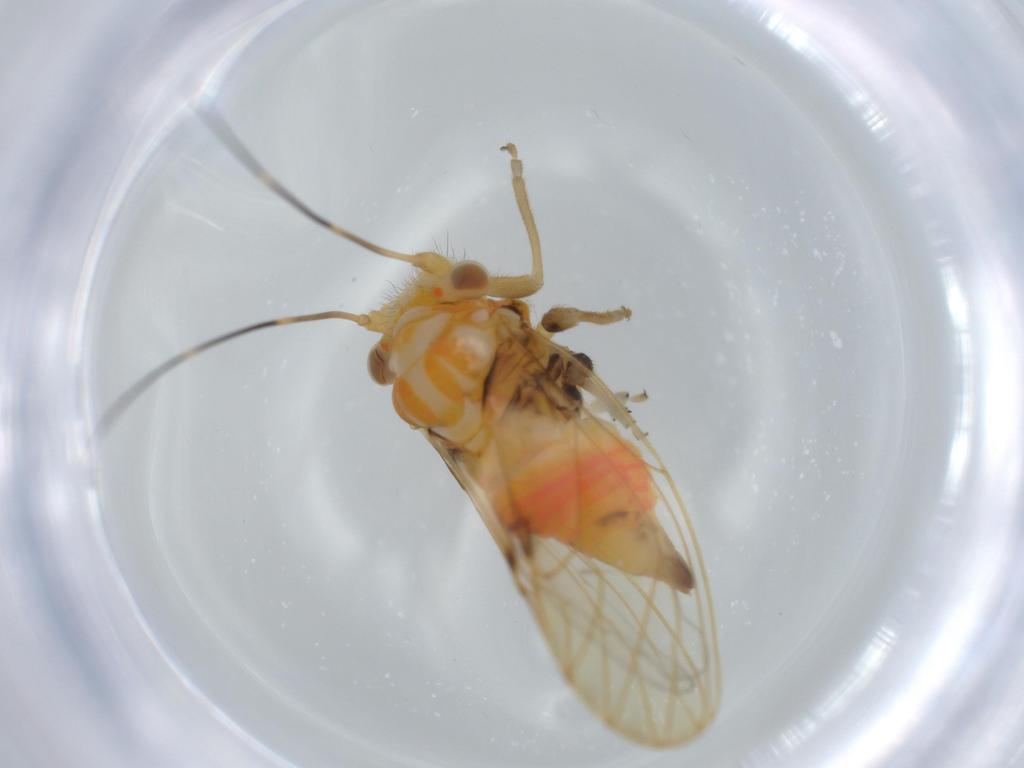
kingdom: Animalia
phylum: Arthropoda
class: Insecta
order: Hemiptera
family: Psyllidae
